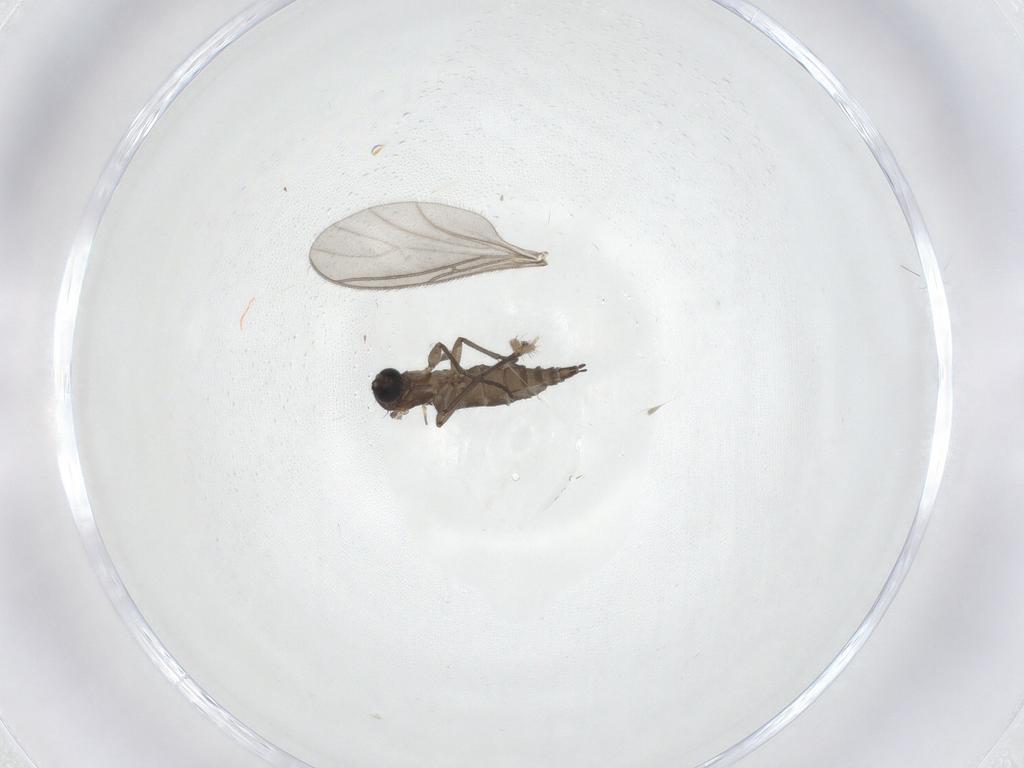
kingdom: Animalia
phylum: Arthropoda
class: Insecta
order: Diptera
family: Sciaridae
